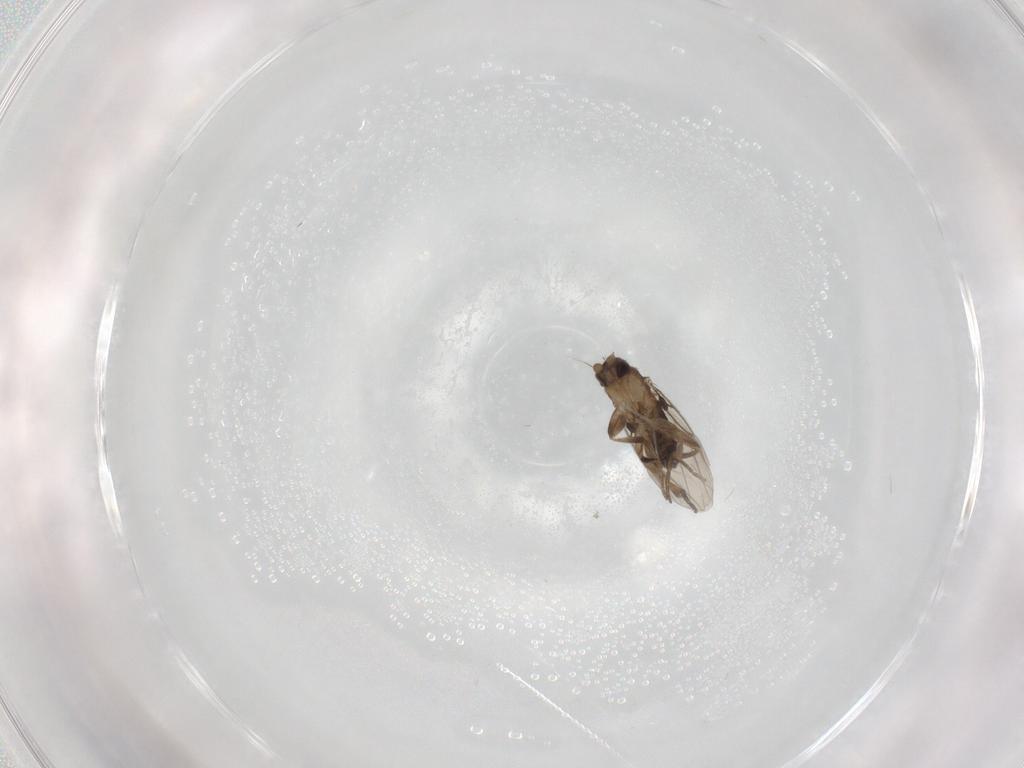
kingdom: Animalia
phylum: Arthropoda
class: Insecta
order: Diptera
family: Phoridae
